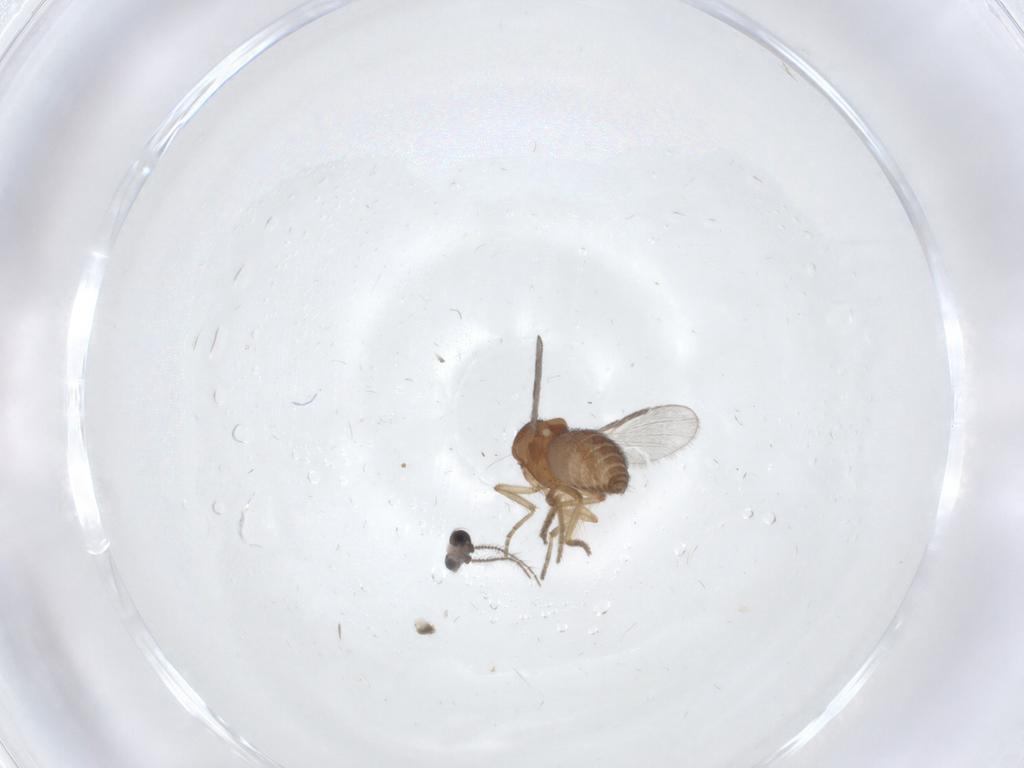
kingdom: Animalia
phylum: Arthropoda
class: Insecta
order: Diptera
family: Ceratopogonidae
